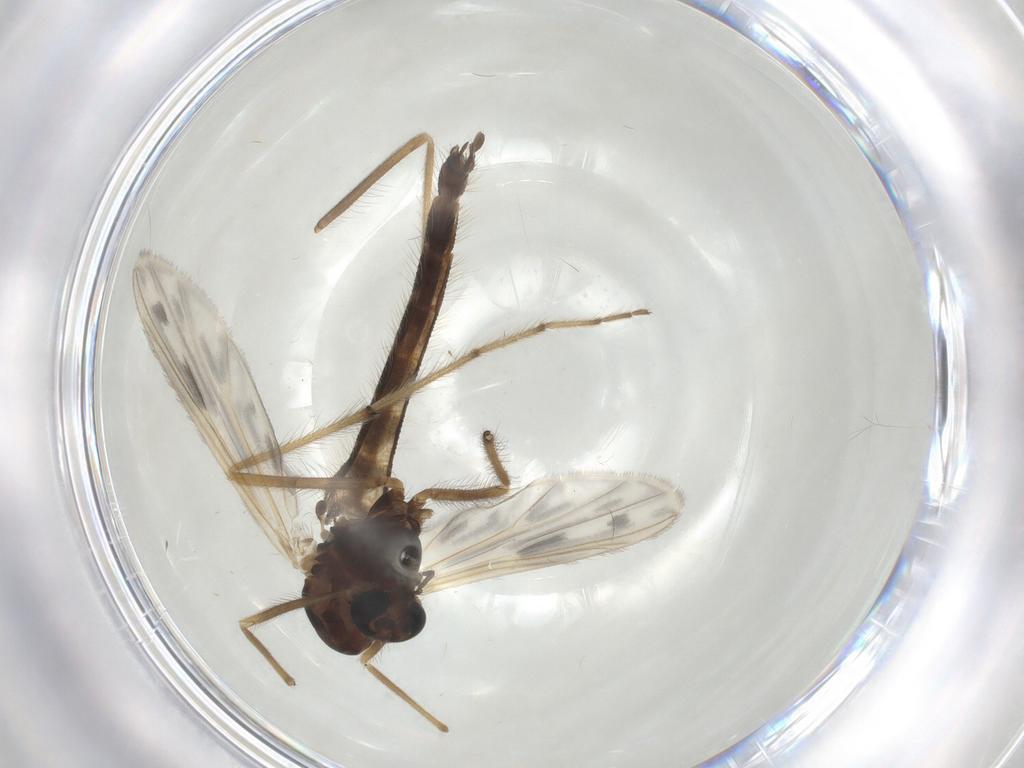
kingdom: Animalia
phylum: Arthropoda
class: Insecta
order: Diptera
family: Chironomidae
